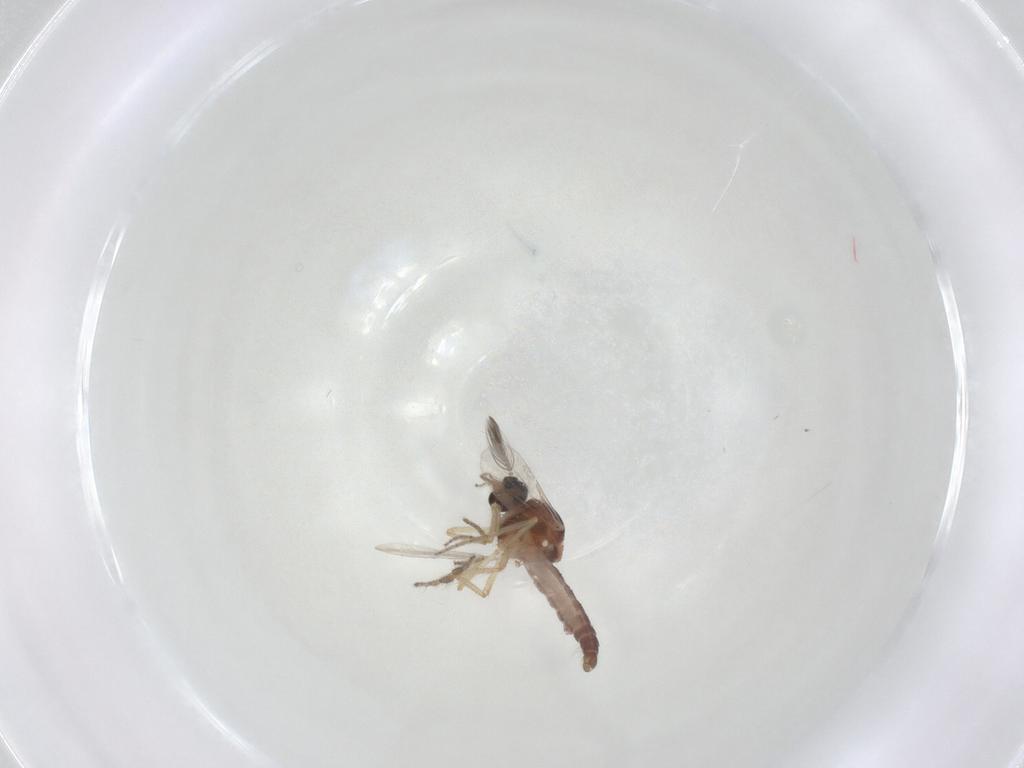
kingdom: Animalia
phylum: Arthropoda
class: Insecta
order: Diptera
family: Ceratopogonidae
